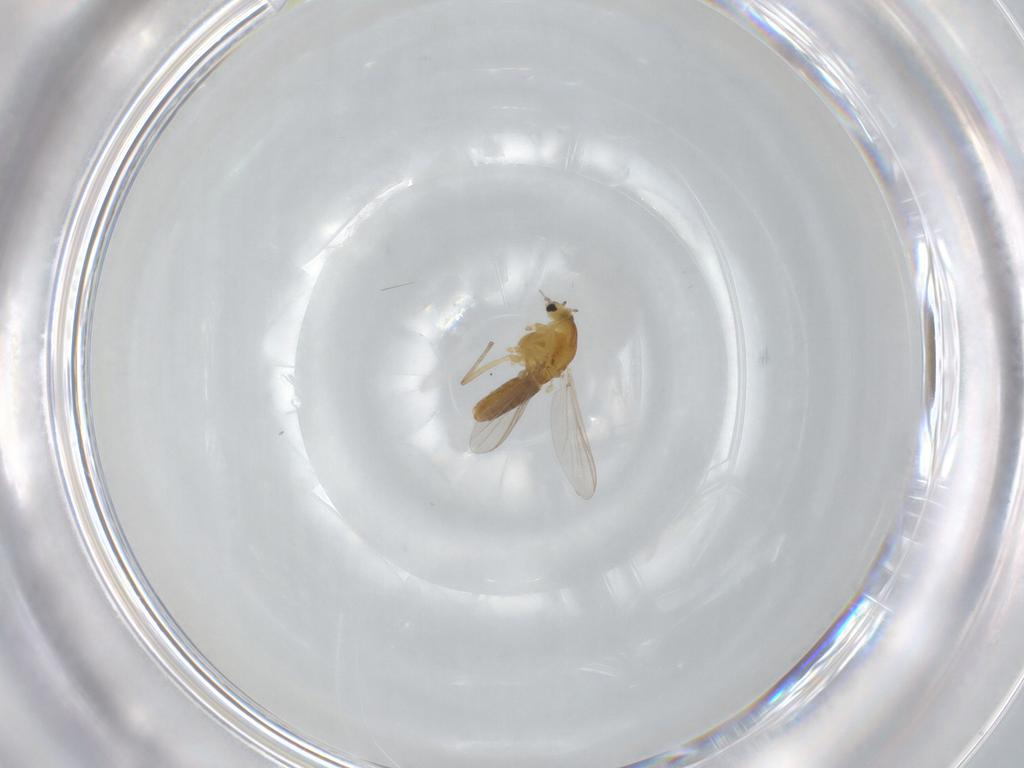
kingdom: Animalia
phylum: Arthropoda
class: Insecta
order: Diptera
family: Chironomidae
